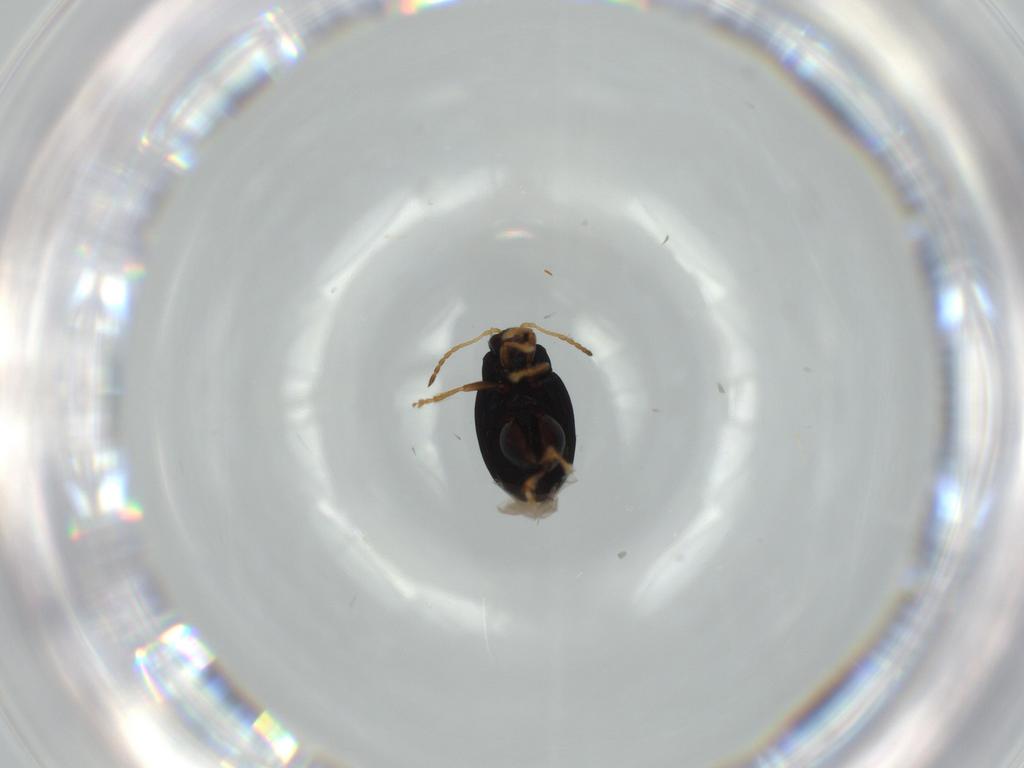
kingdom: Animalia
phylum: Arthropoda
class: Insecta
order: Coleoptera
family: Chrysomelidae
